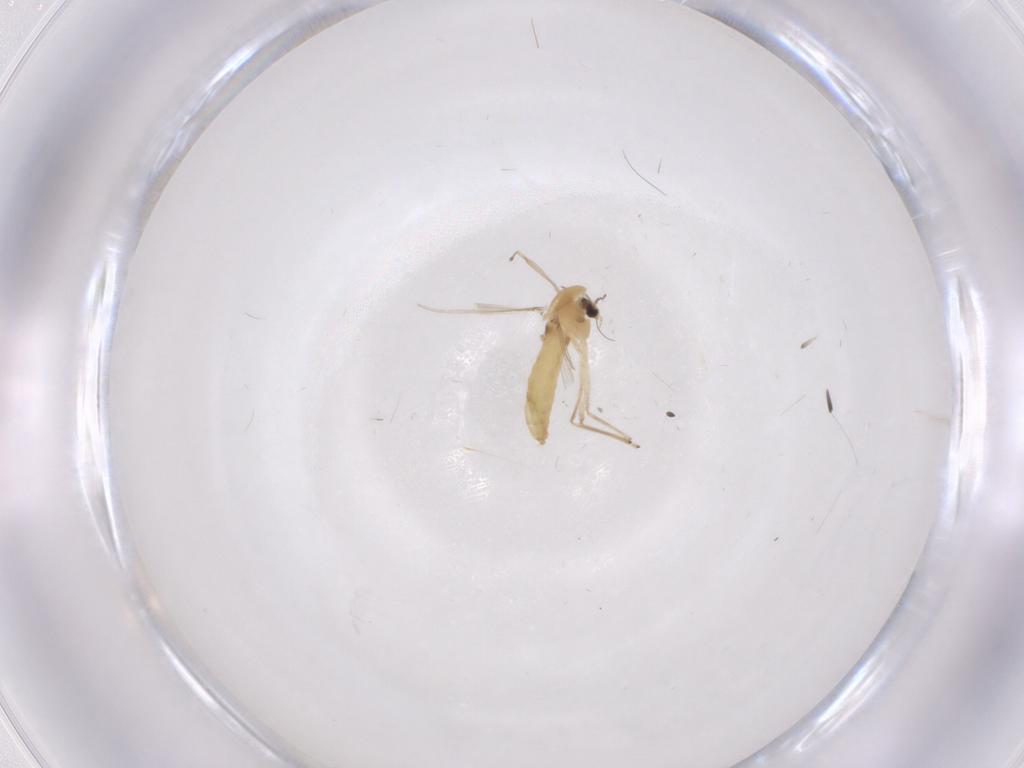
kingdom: Animalia
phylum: Arthropoda
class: Insecta
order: Diptera
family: Chironomidae
